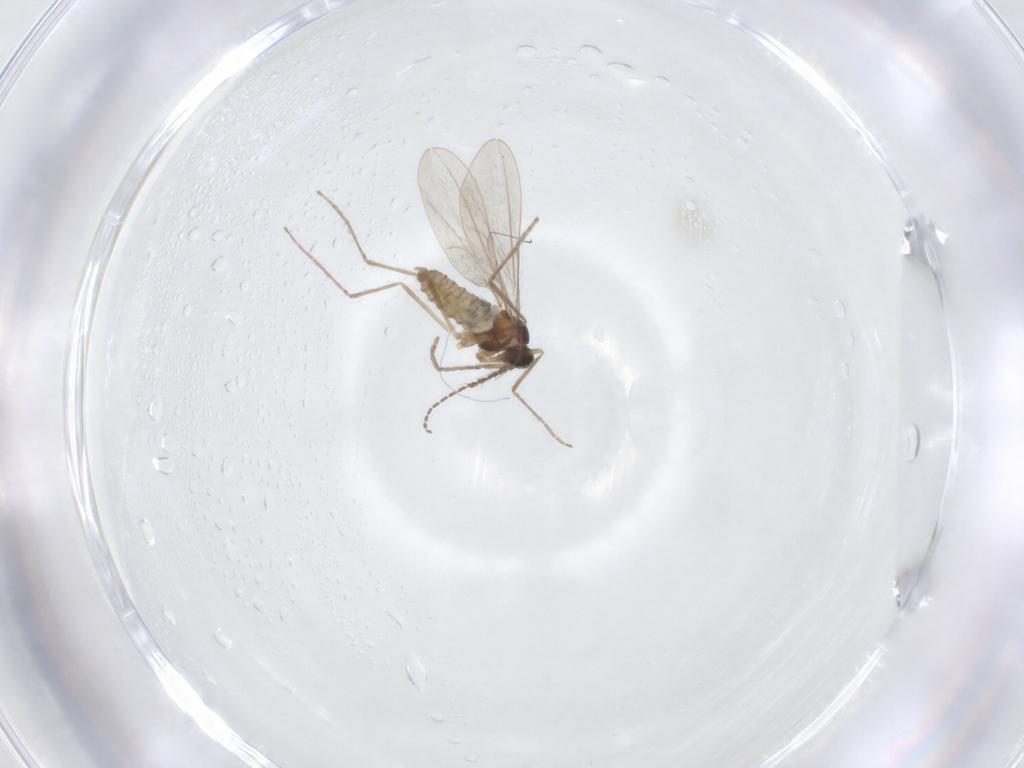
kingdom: Animalia
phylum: Arthropoda
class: Insecta
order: Diptera
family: Cecidomyiidae
